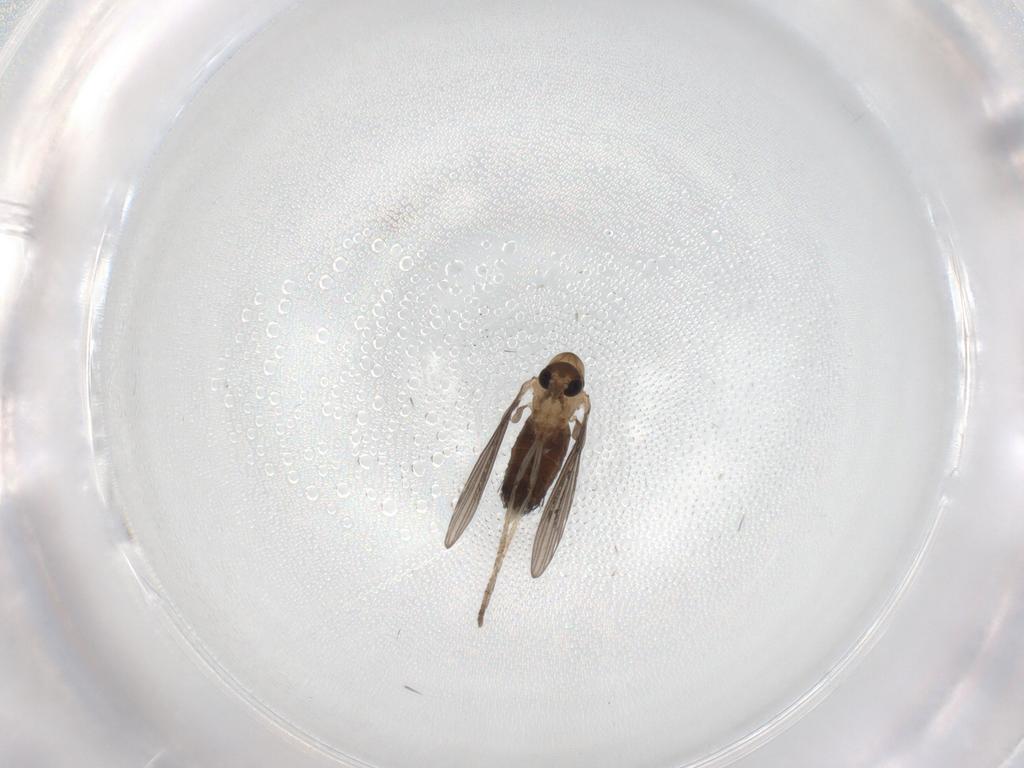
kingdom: Animalia
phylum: Arthropoda
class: Insecta
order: Diptera
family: Psychodidae
